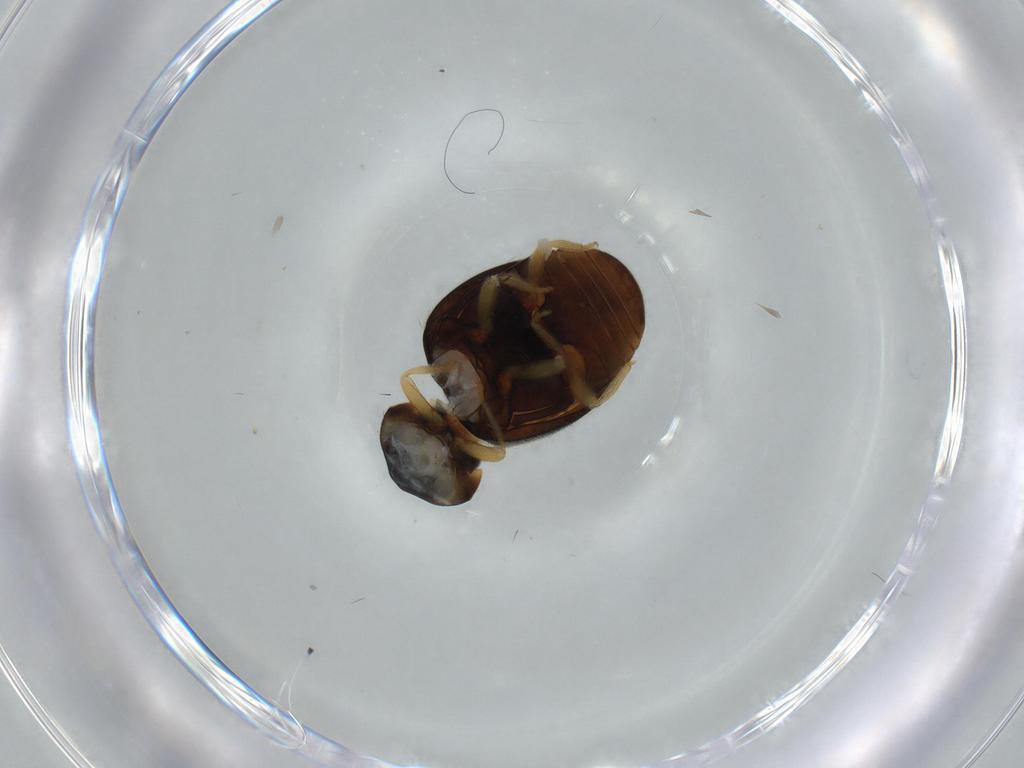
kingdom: Animalia
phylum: Arthropoda
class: Insecta
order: Coleoptera
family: Coccinellidae
